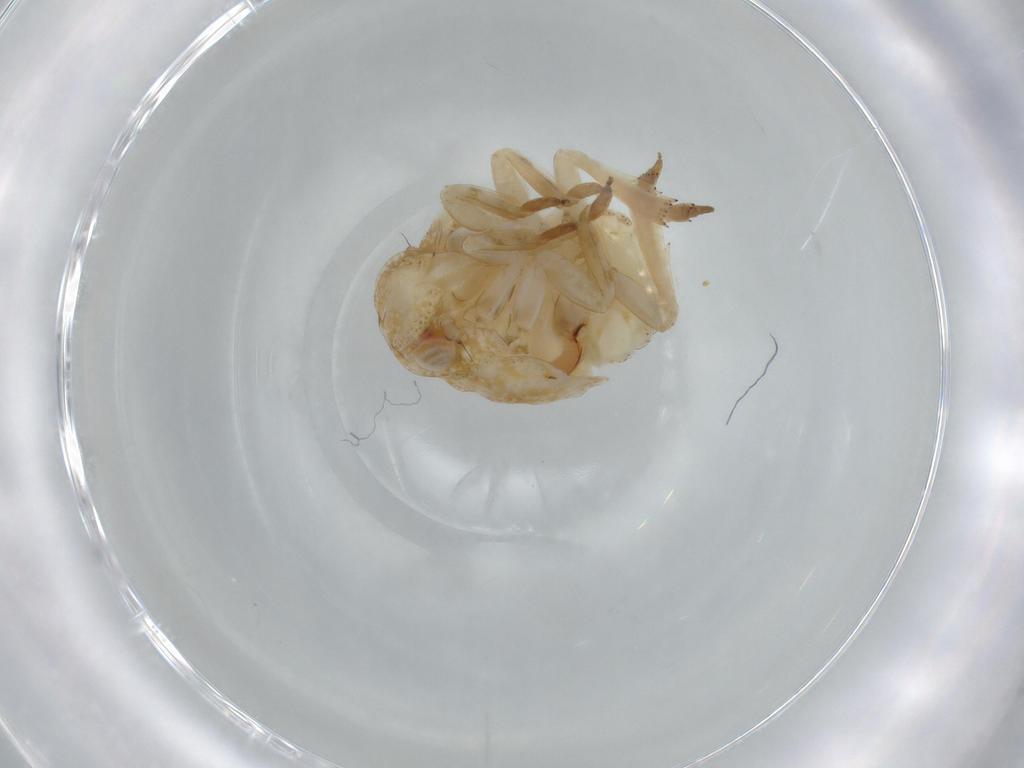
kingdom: Animalia
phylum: Arthropoda
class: Insecta
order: Hemiptera
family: Acanaloniidae
